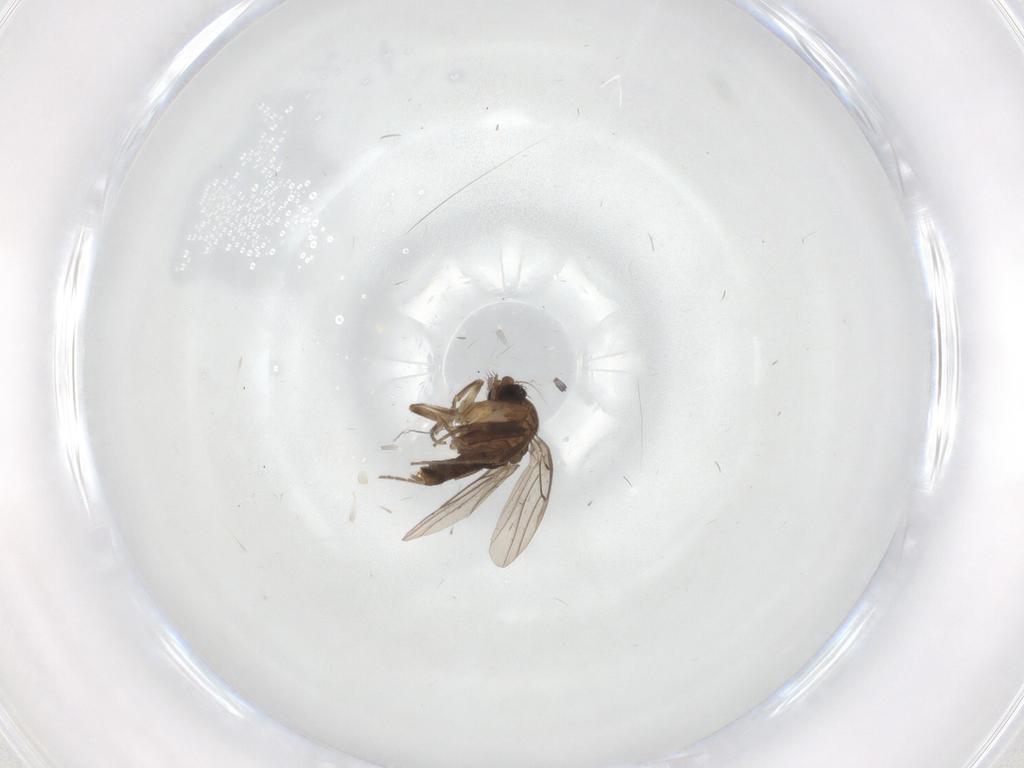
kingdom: Animalia
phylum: Arthropoda
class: Insecta
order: Diptera
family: Phoridae
